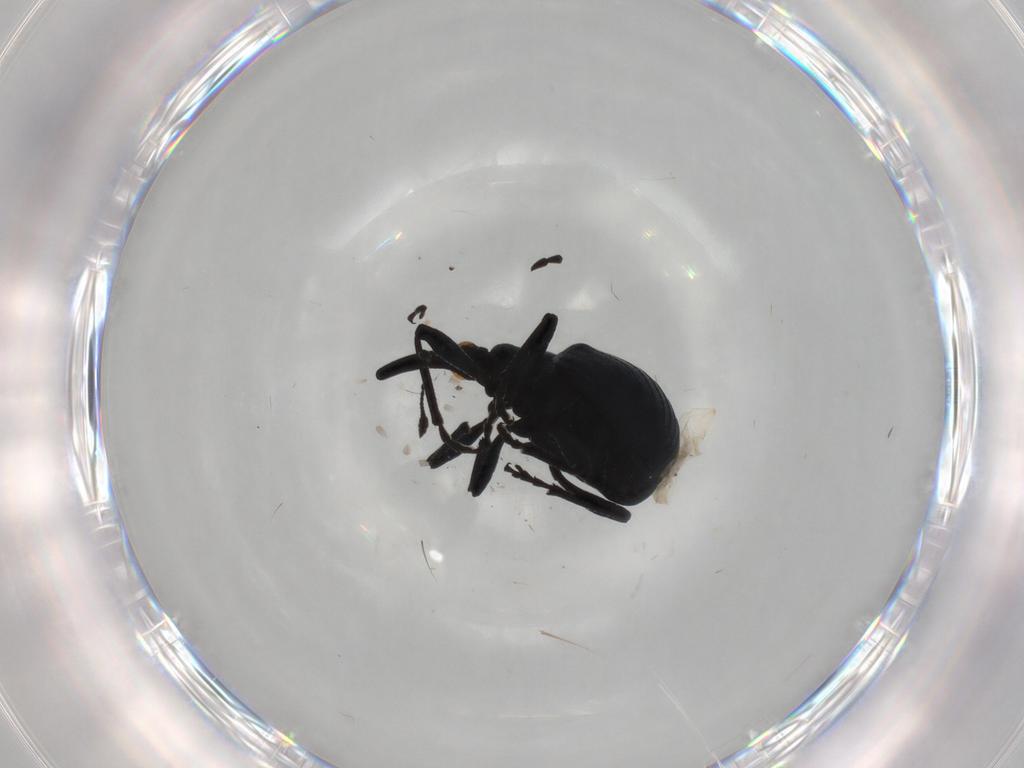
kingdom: Animalia
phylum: Arthropoda
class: Insecta
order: Coleoptera
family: Apionidae
